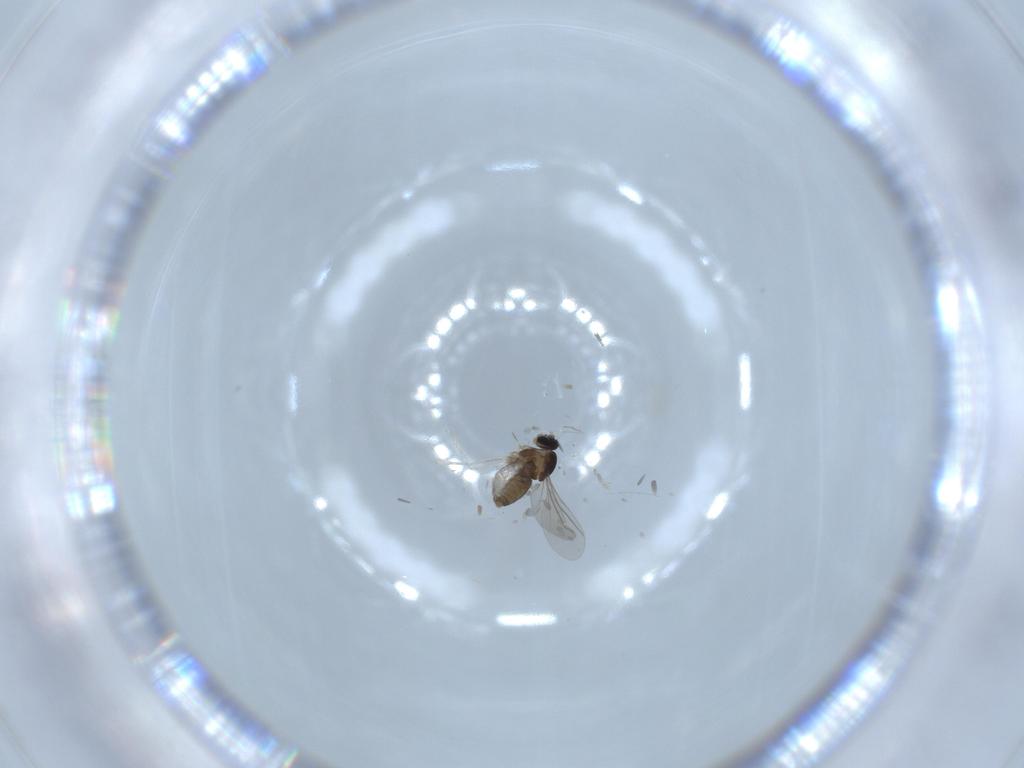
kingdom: Animalia
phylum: Arthropoda
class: Insecta
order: Diptera
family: Cecidomyiidae
